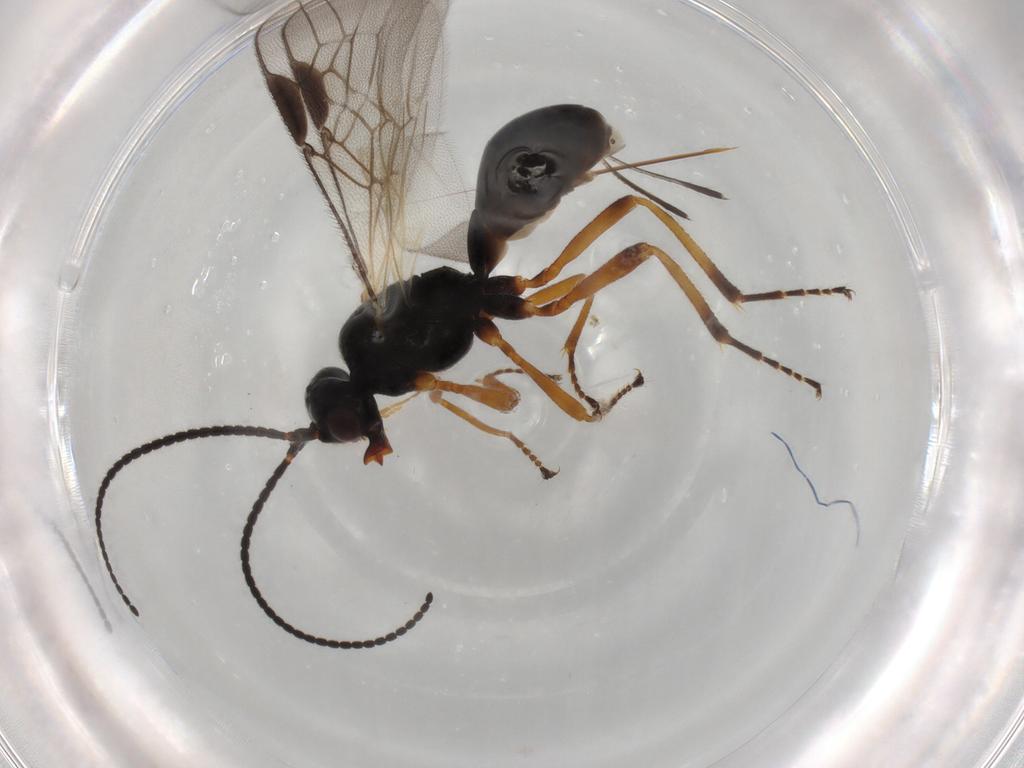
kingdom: Animalia
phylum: Arthropoda
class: Insecta
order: Hymenoptera
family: Braconidae
